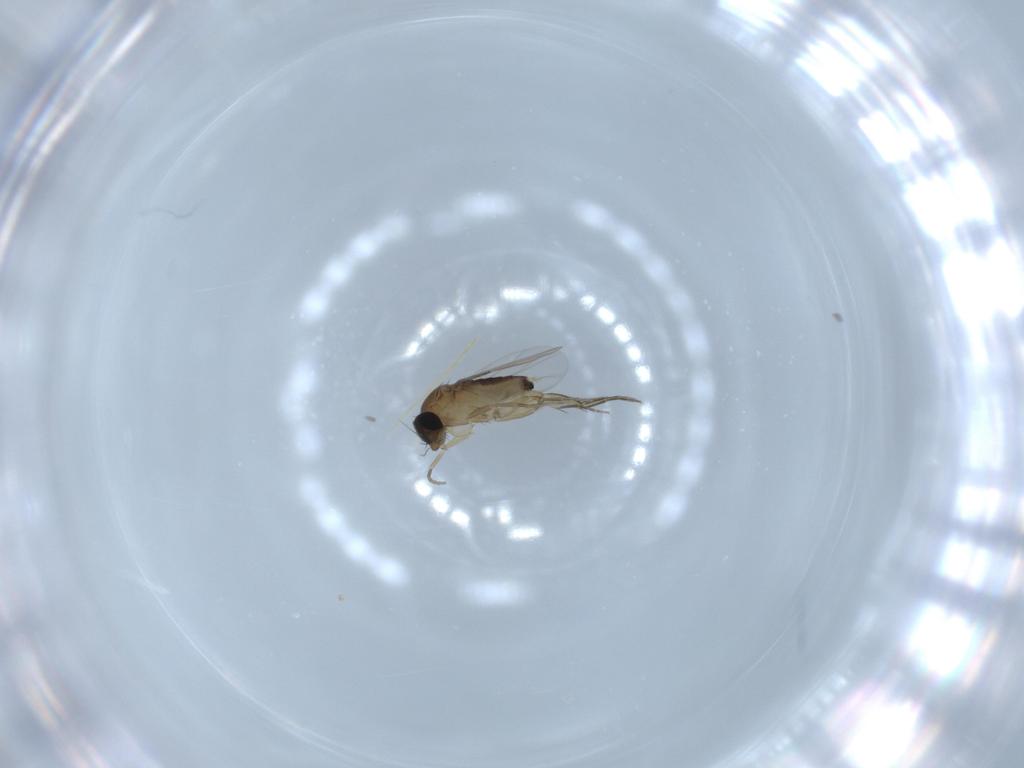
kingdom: Animalia
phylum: Arthropoda
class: Insecta
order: Diptera
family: Phoridae
